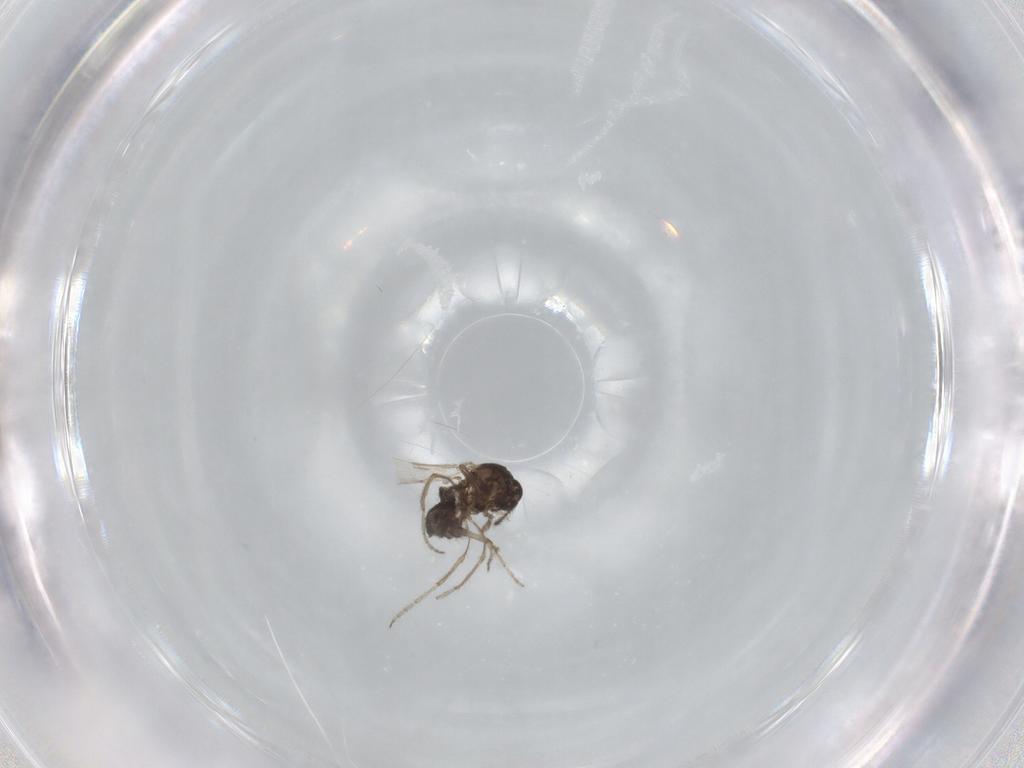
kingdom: Animalia
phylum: Arthropoda
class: Insecta
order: Diptera
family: Ceratopogonidae
